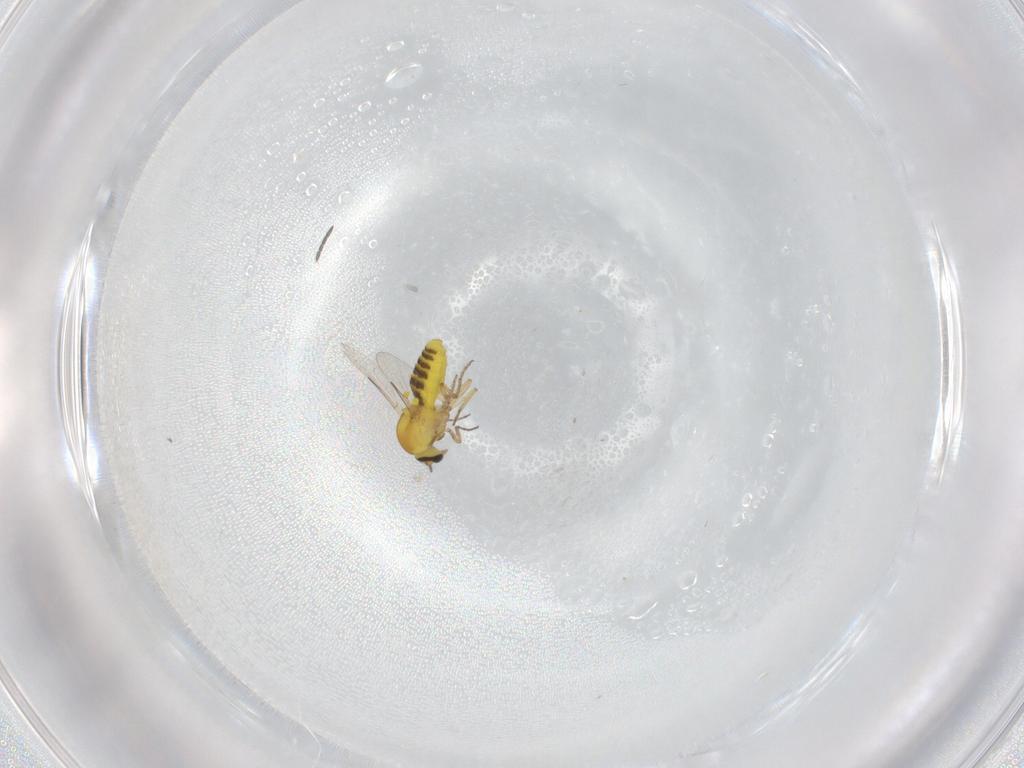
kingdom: Animalia
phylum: Arthropoda
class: Insecta
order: Diptera
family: Ceratopogonidae
